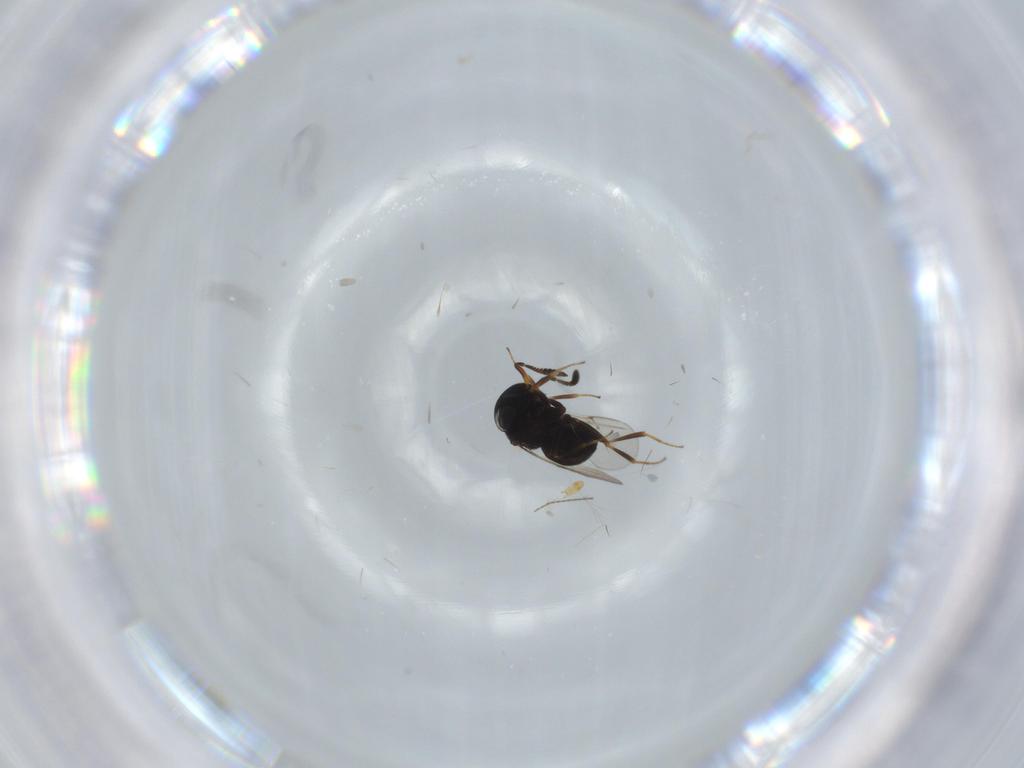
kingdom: Animalia
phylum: Arthropoda
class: Insecta
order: Hymenoptera
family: Scelionidae
